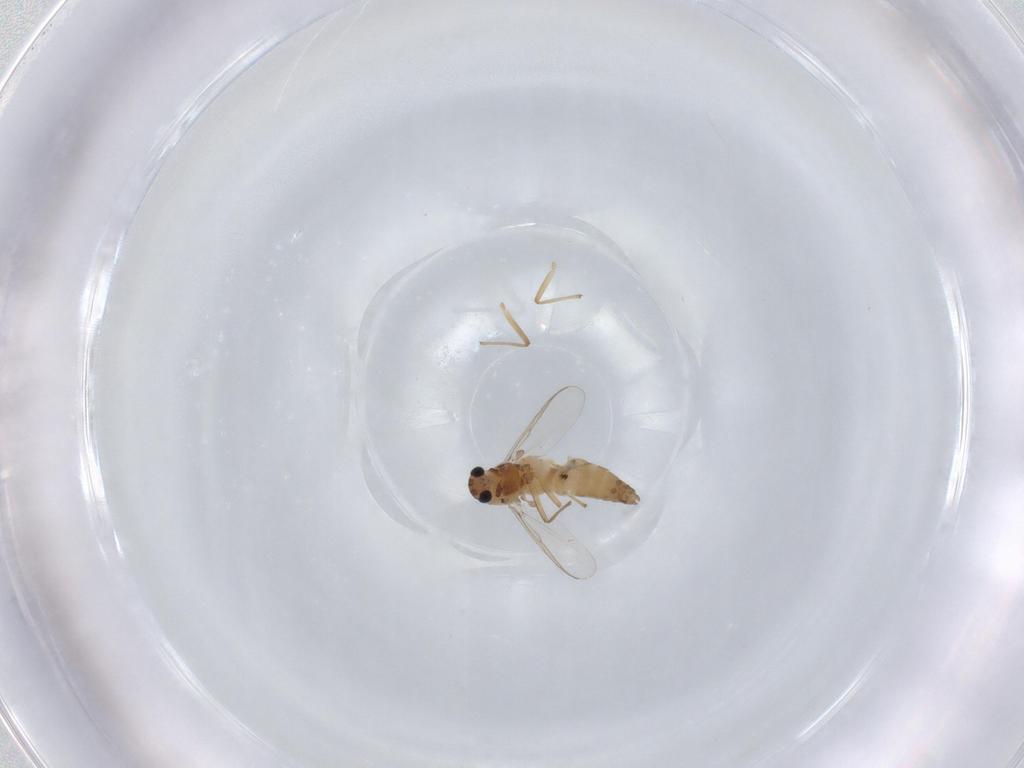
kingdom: Animalia
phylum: Arthropoda
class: Insecta
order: Diptera
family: Chironomidae
